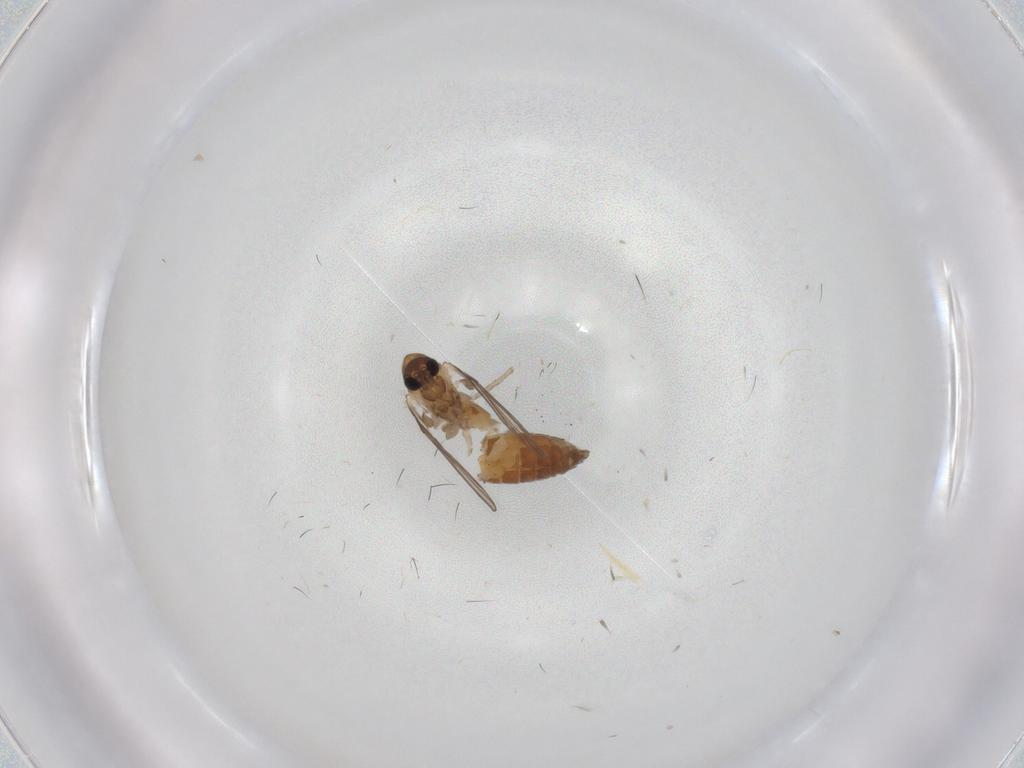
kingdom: Animalia
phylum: Arthropoda
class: Insecta
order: Diptera
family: Psychodidae
